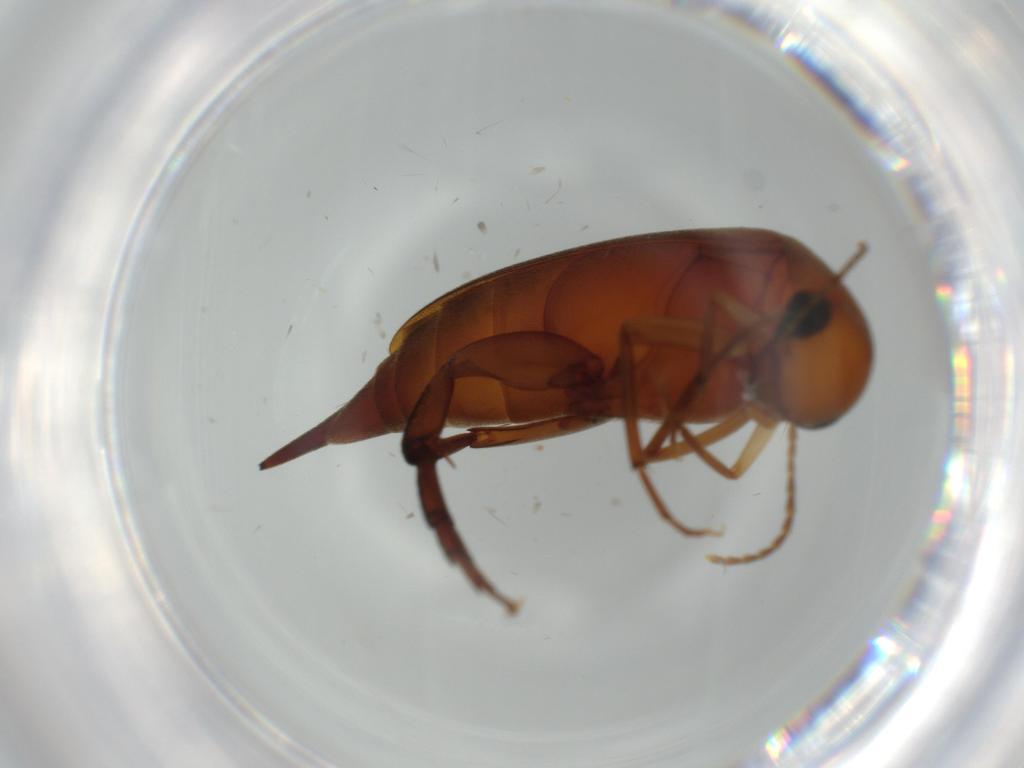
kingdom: Animalia
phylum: Arthropoda
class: Insecta
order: Coleoptera
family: Mordellidae
